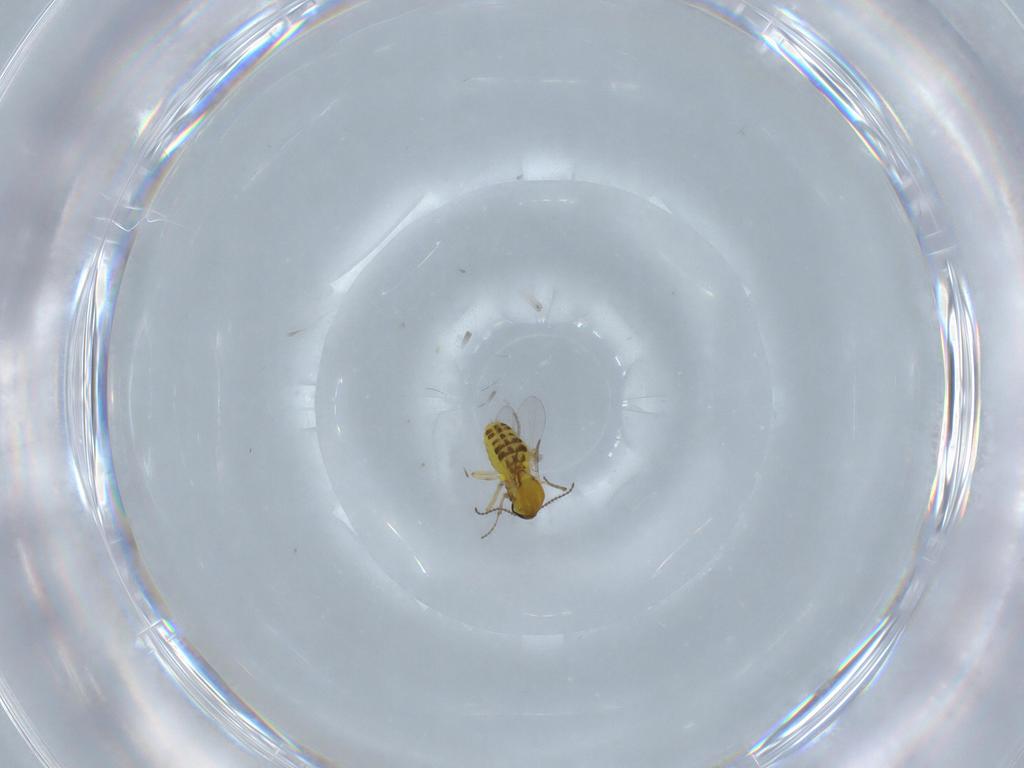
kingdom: Animalia
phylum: Arthropoda
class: Insecta
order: Diptera
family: Ceratopogonidae
